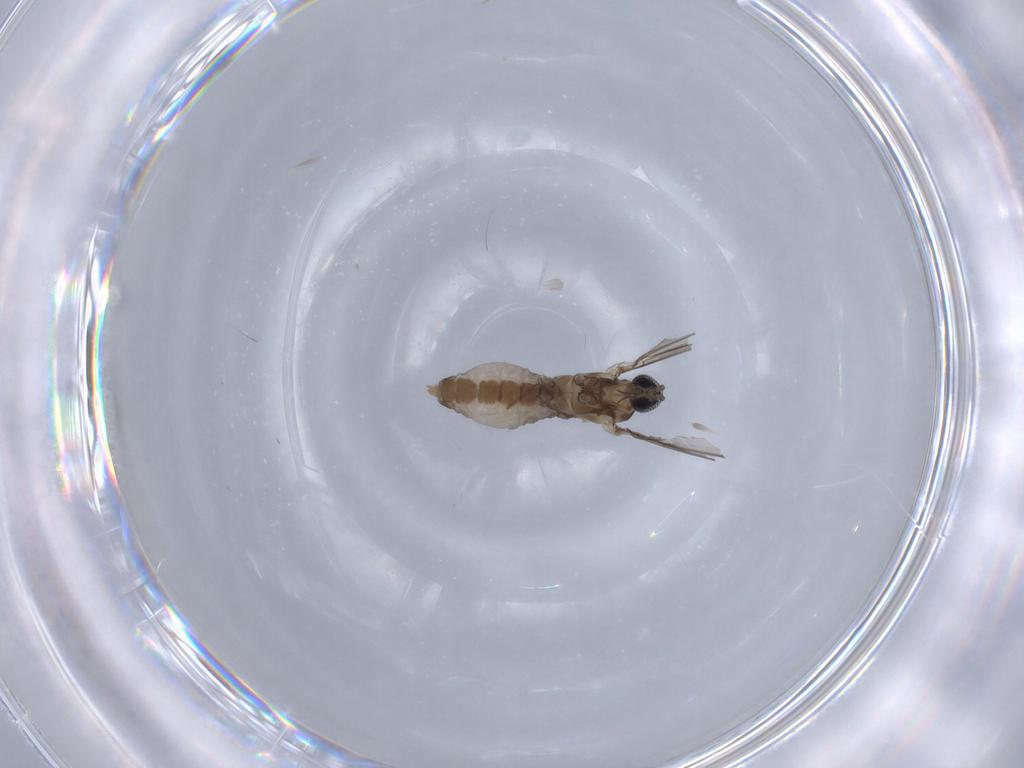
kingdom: Animalia
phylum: Arthropoda
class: Insecta
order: Diptera
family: Cecidomyiidae
